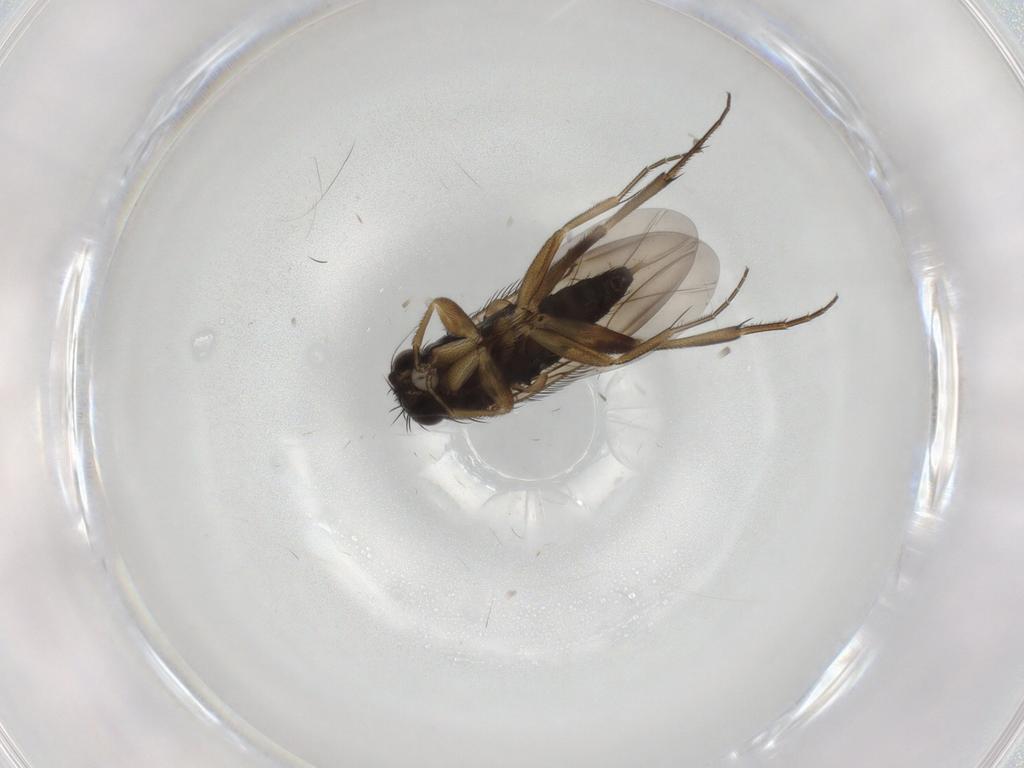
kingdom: Animalia
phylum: Arthropoda
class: Insecta
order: Diptera
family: Phoridae
